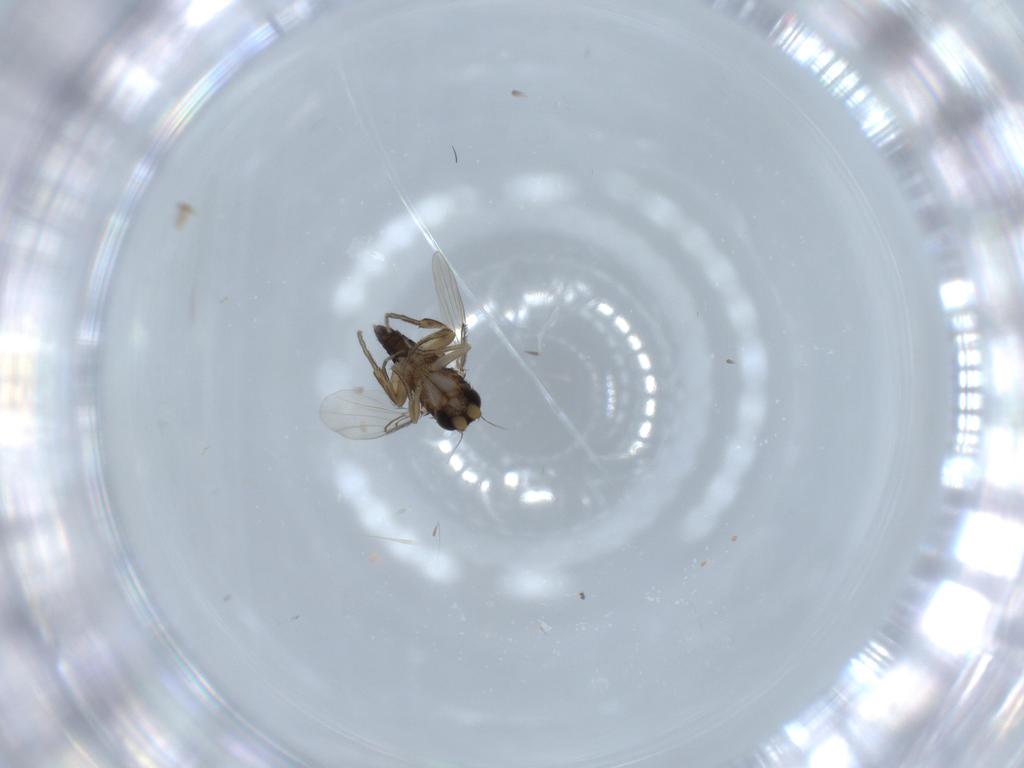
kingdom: Animalia
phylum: Arthropoda
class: Insecta
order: Diptera
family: Phoridae
